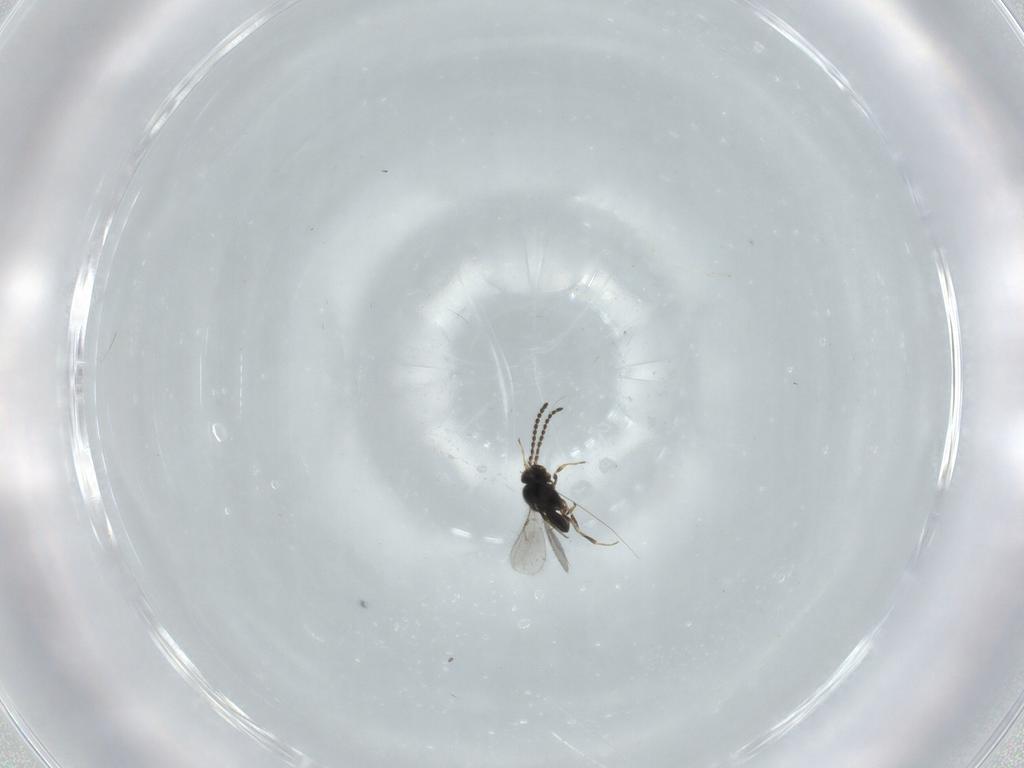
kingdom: Animalia
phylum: Arthropoda
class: Insecta
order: Hymenoptera
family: Scelionidae
